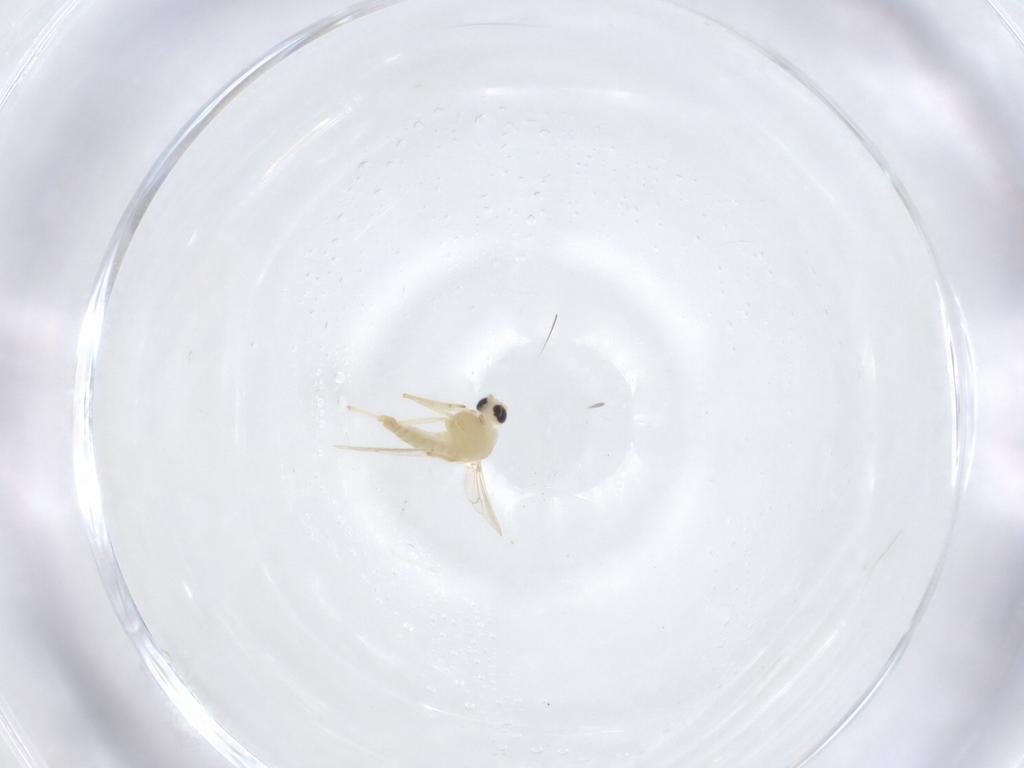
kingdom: Animalia
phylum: Arthropoda
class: Insecta
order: Diptera
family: Chironomidae
